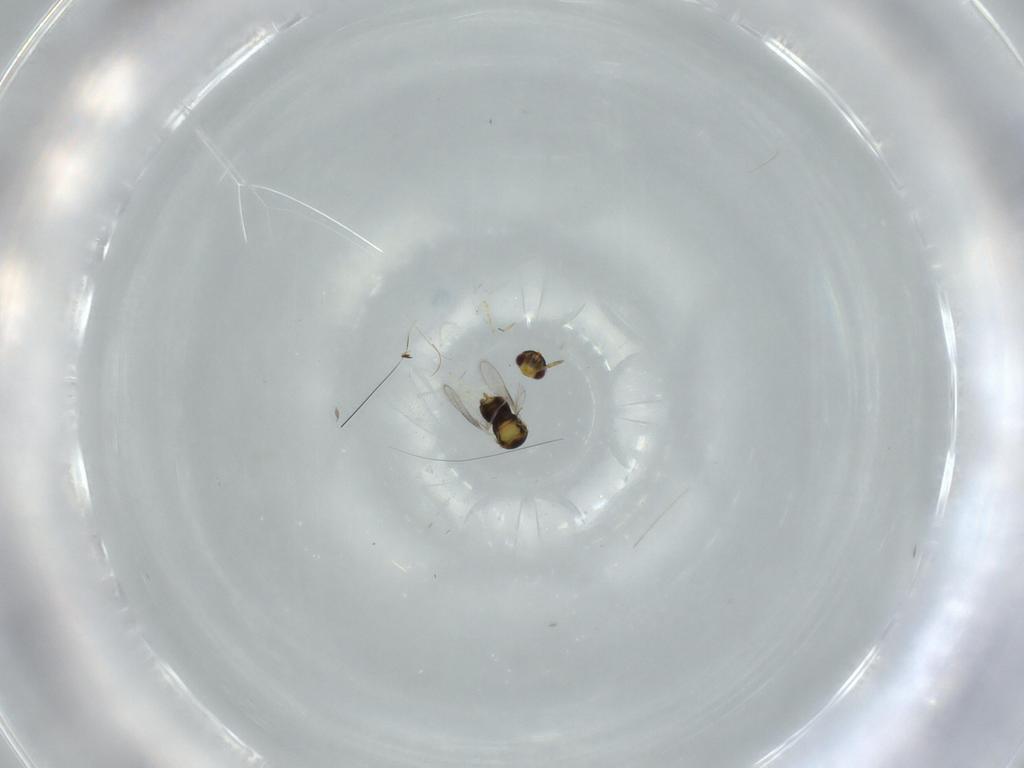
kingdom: Animalia
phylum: Arthropoda
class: Insecta
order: Hymenoptera
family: Aphelinidae
